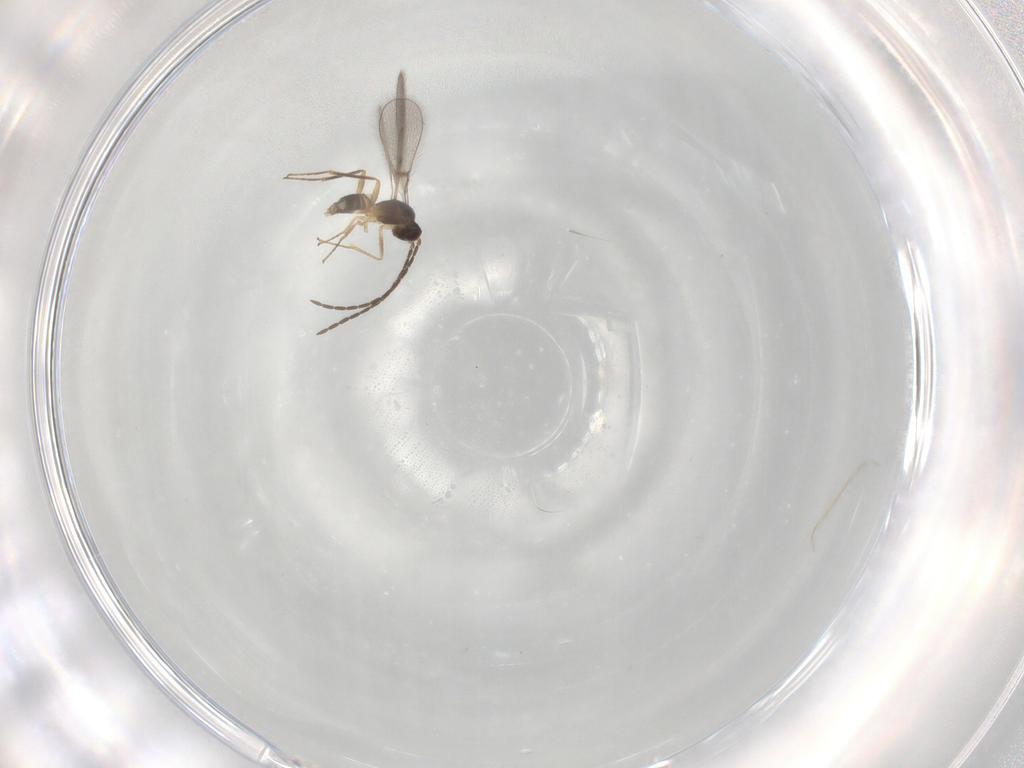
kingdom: Animalia
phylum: Arthropoda
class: Insecta
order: Hymenoptera
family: Mymaridae
